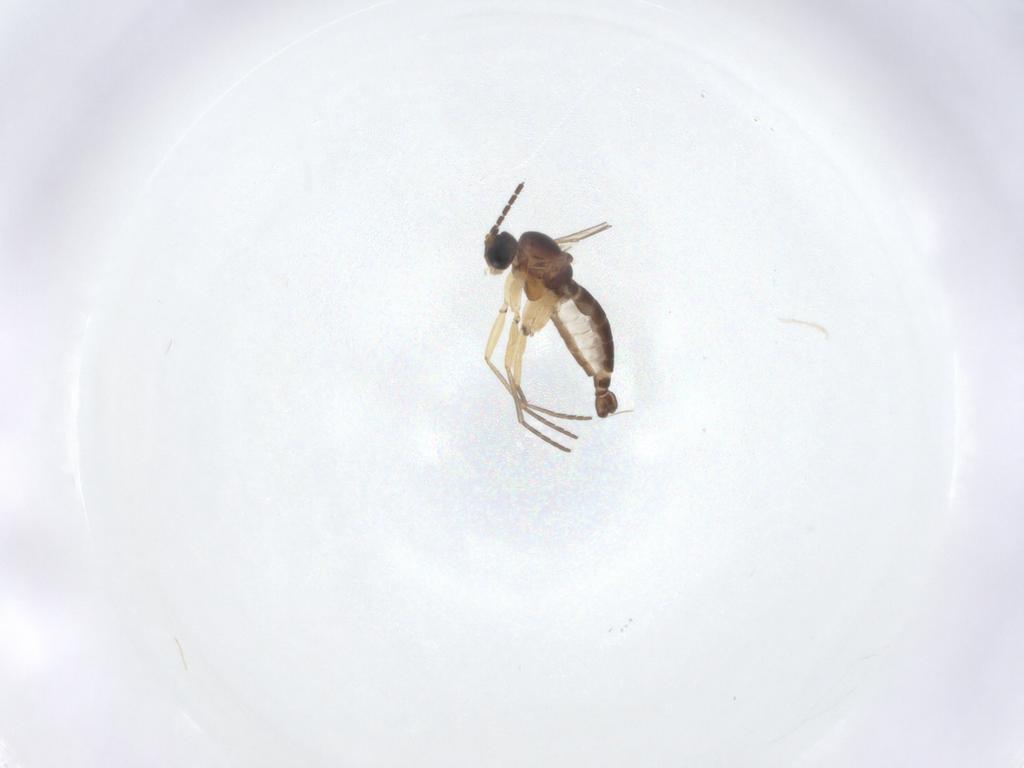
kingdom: Animalia
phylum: Arthropoda
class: Insecta
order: Diptera
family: Sciaridae
